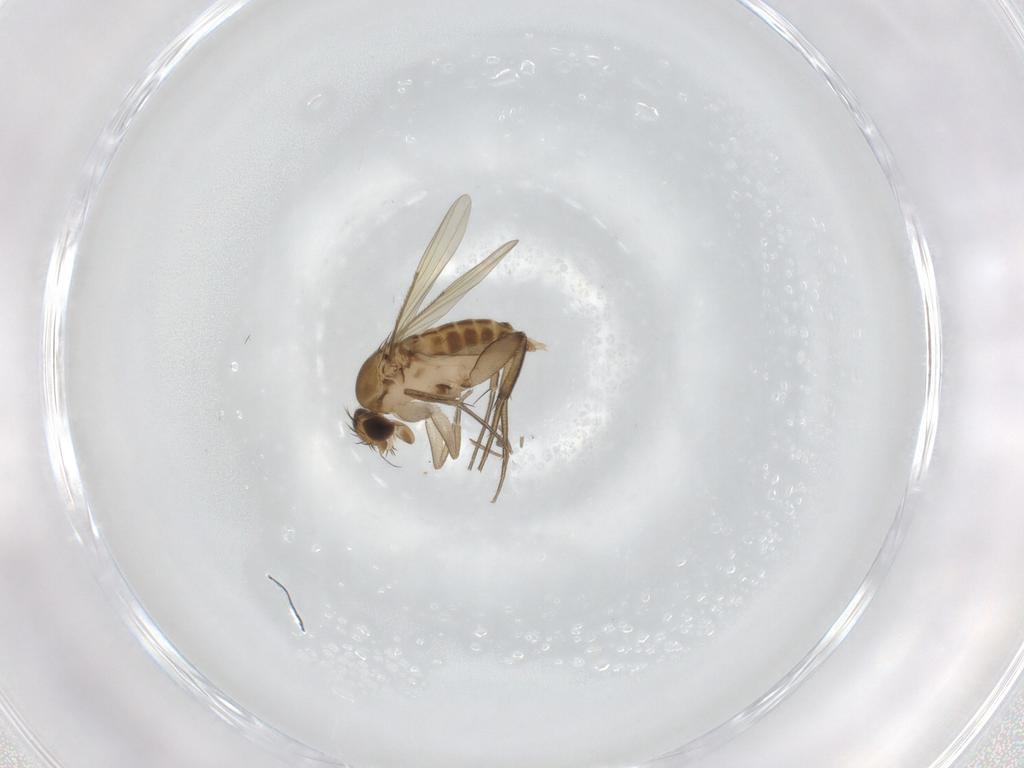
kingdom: Animalia
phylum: Arthropoda
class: Insecta
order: Diptera
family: Phoridae
